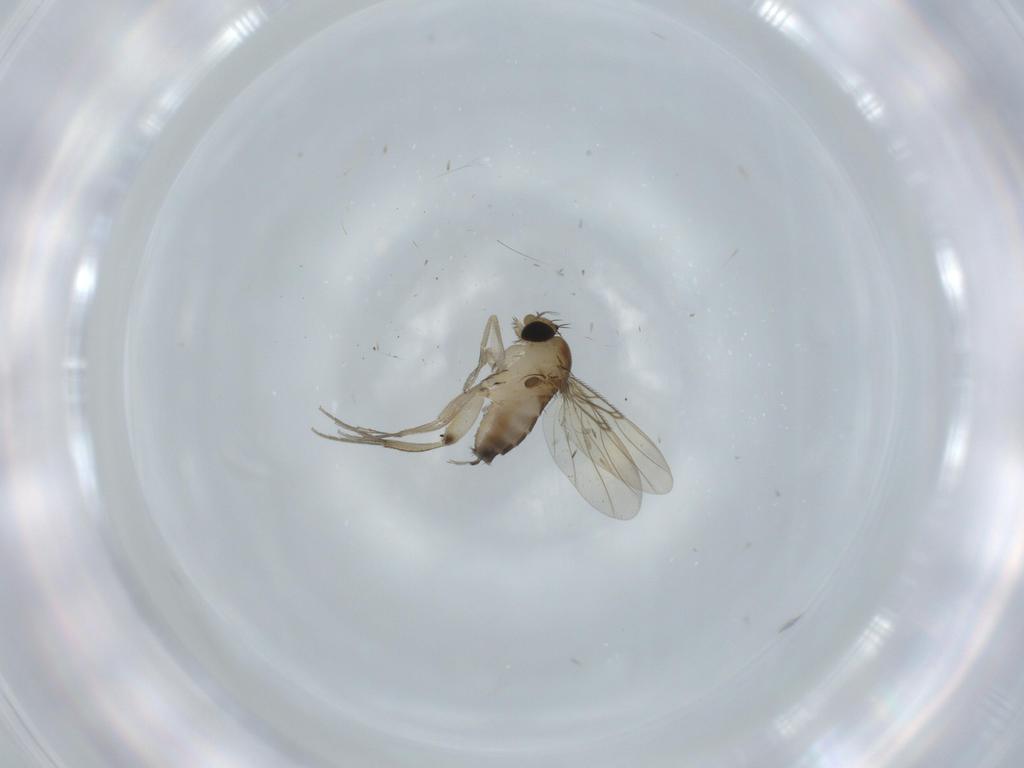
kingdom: Animalia
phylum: Arthropoda
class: Insecta
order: Diptera
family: Phoridae
